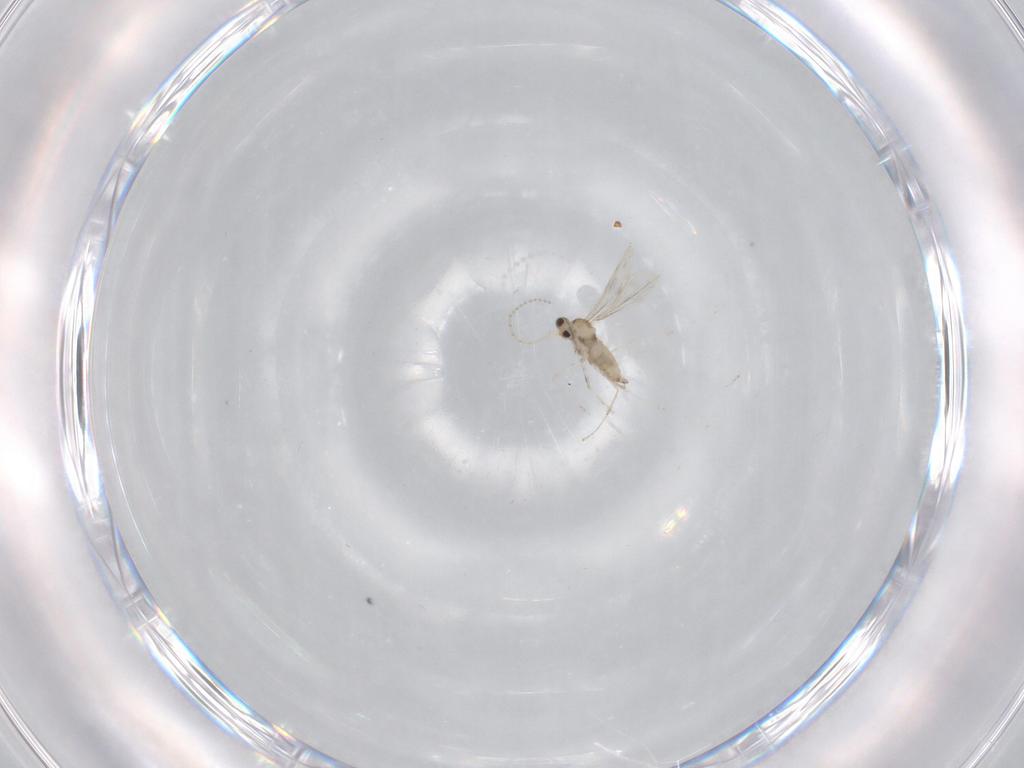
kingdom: Animalia
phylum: Arthropoda
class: Insecta
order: Diptera
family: Cecidomyiidae
